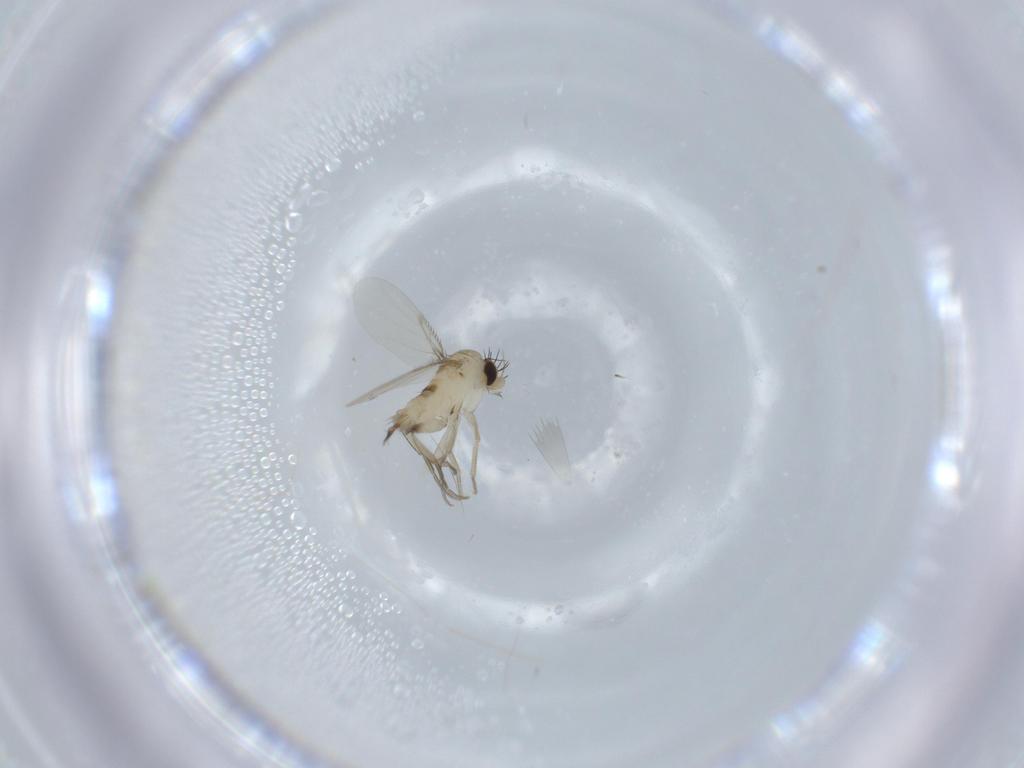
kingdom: Animalia
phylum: Arthropoda
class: Insecta
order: Diptera
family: Phoridae
